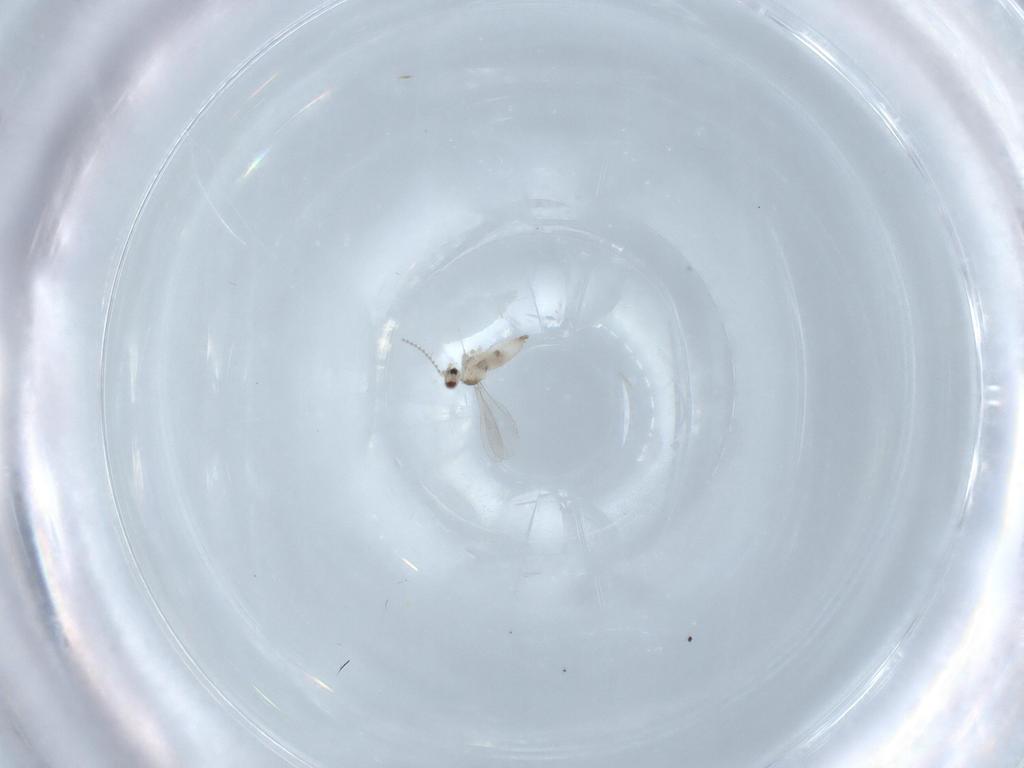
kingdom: Animalia
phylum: Arthropoda
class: Insecta
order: Diptera
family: Cecidomyiidae
